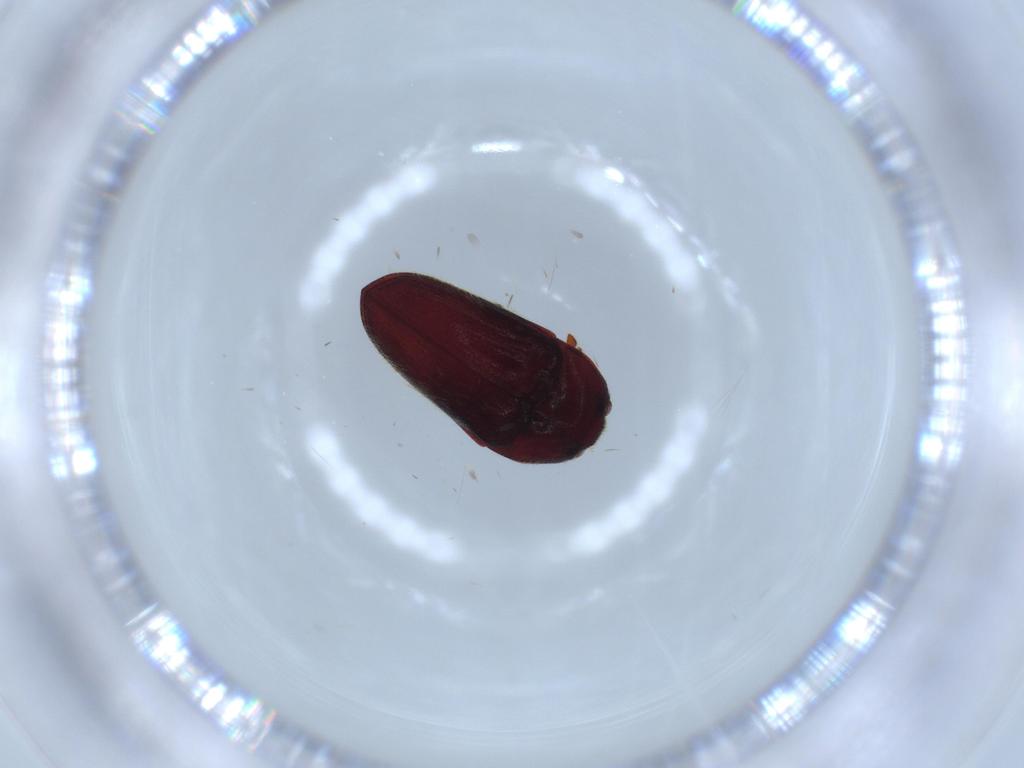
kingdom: Animalia
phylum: Arthropoda
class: Insecta
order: Coleoptera
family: Throscidae
